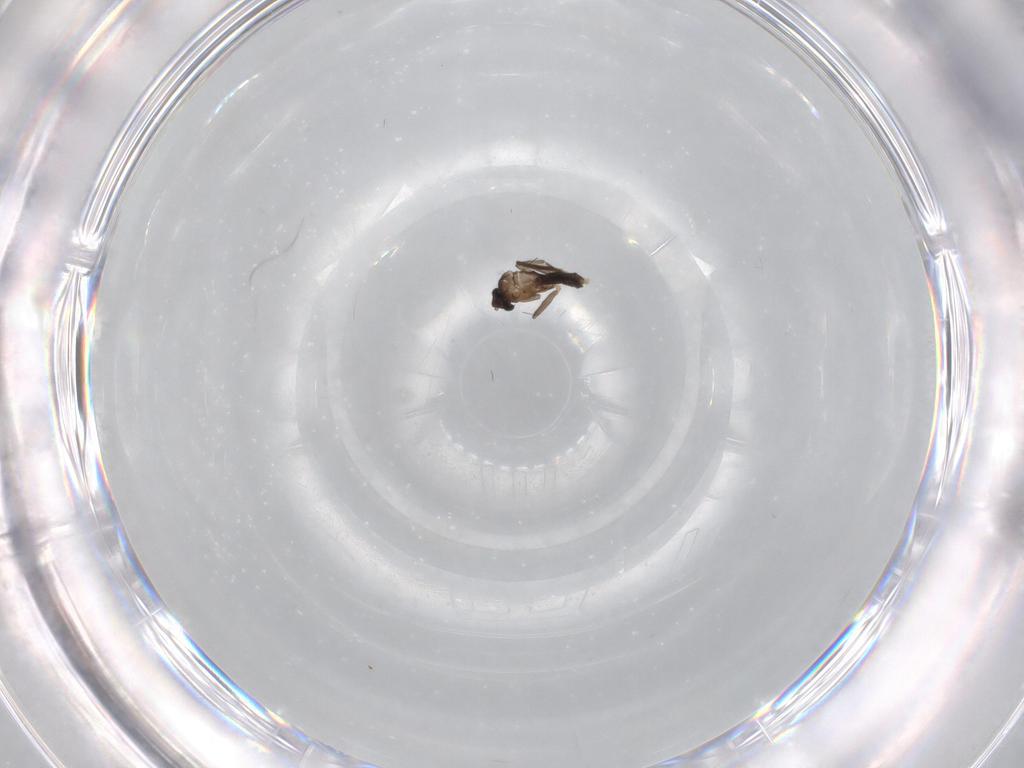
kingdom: Animalia
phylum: Arthropoda
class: Insecta
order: Diptera
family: Phoridae
